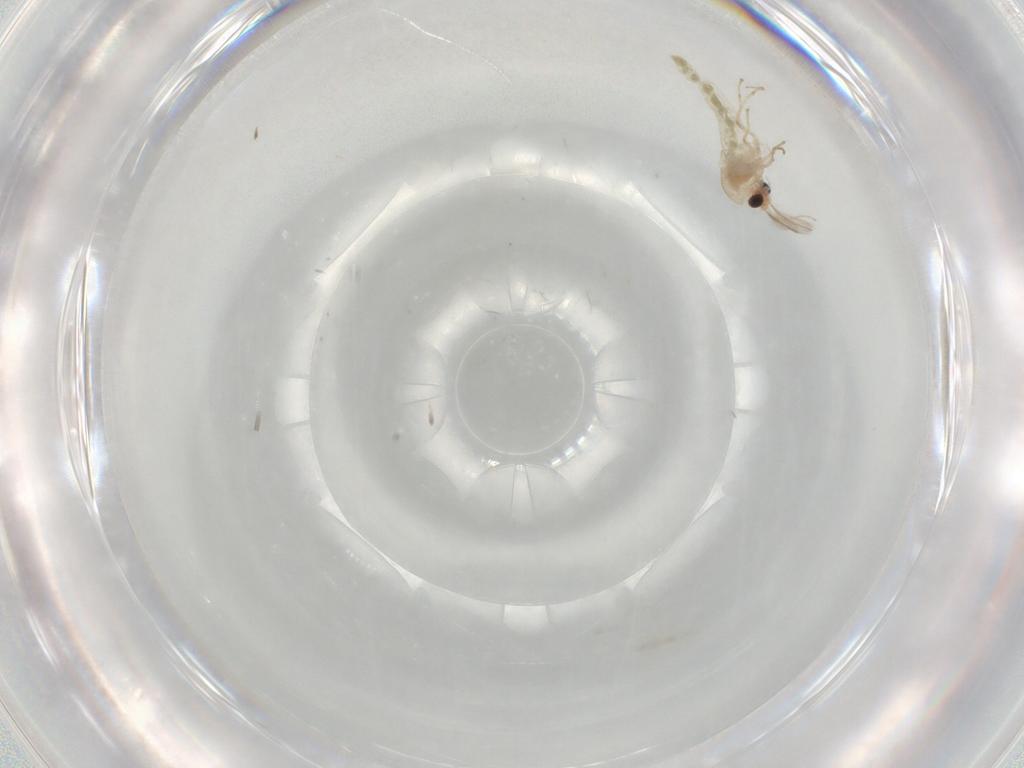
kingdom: Animalia
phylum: Arthropoda
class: Insecta
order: Diptera
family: Chironomidae
